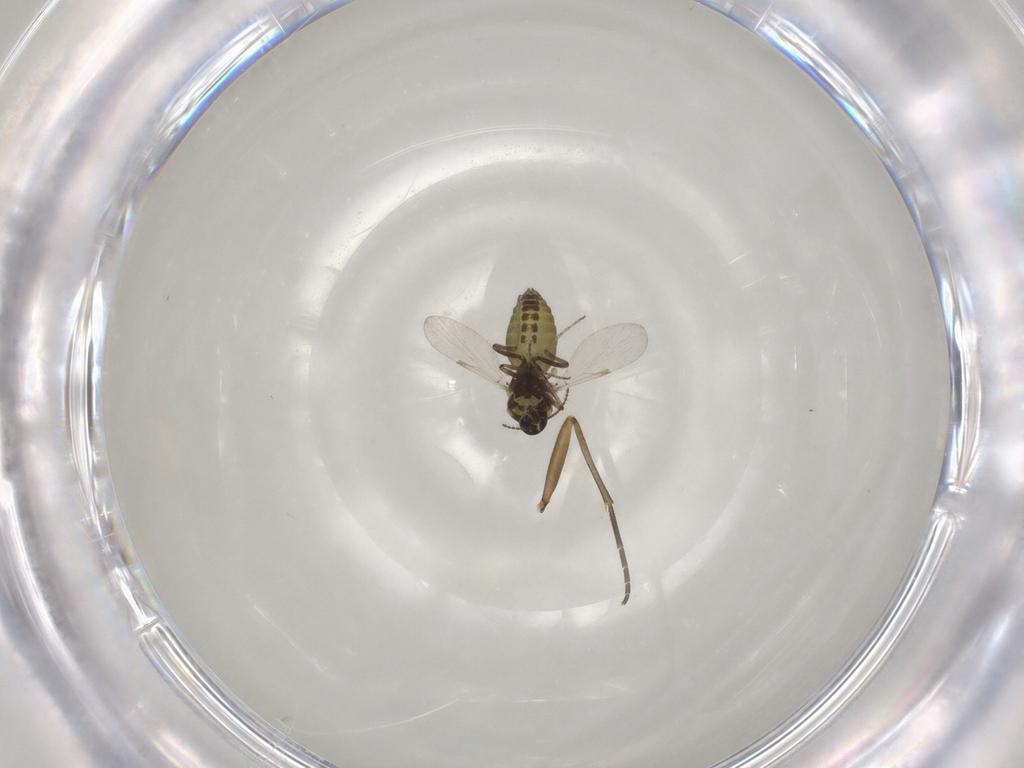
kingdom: Animalia
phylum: Arthropoda
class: Insecta
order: Diptera
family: Sciaridae
